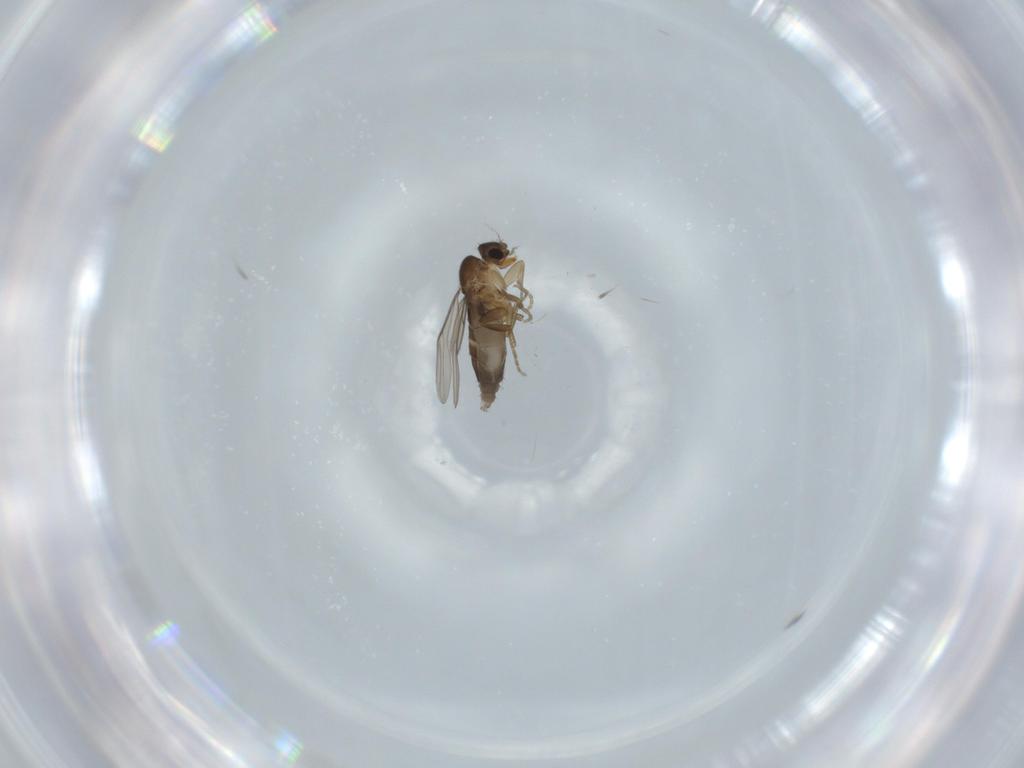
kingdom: Animalia
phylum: Arthropoda
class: Insecta
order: Diptera
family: Phoridae
